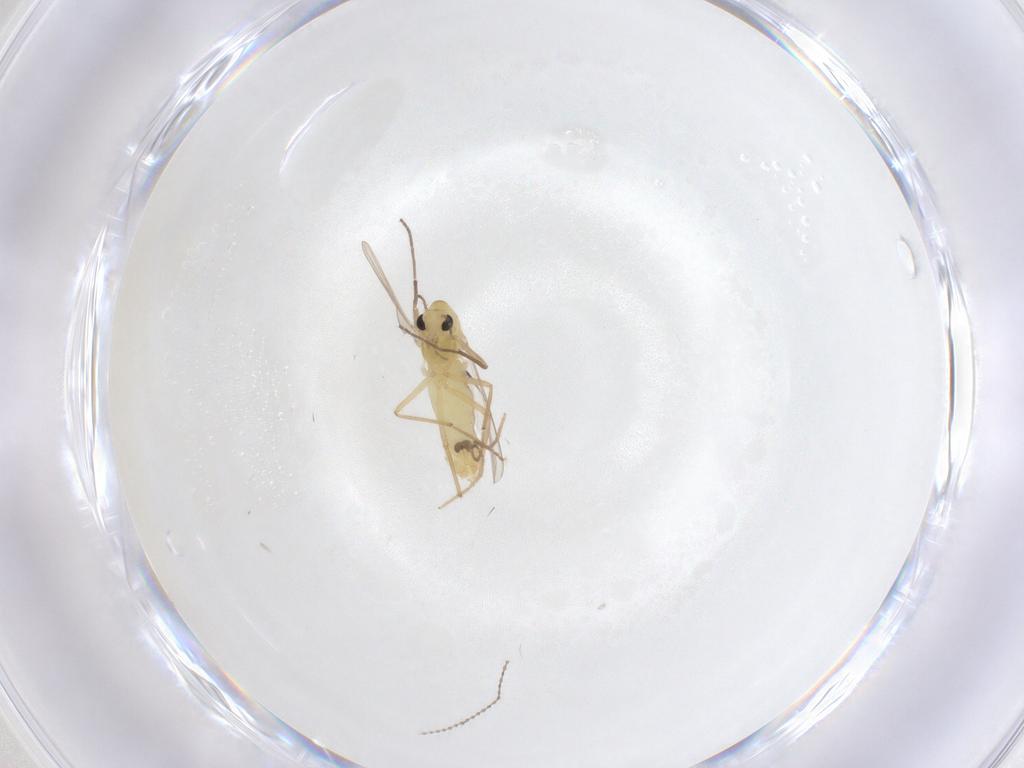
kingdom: Animalia
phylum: Arthropoda
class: Insecta
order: Diptera
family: Chironomidae
